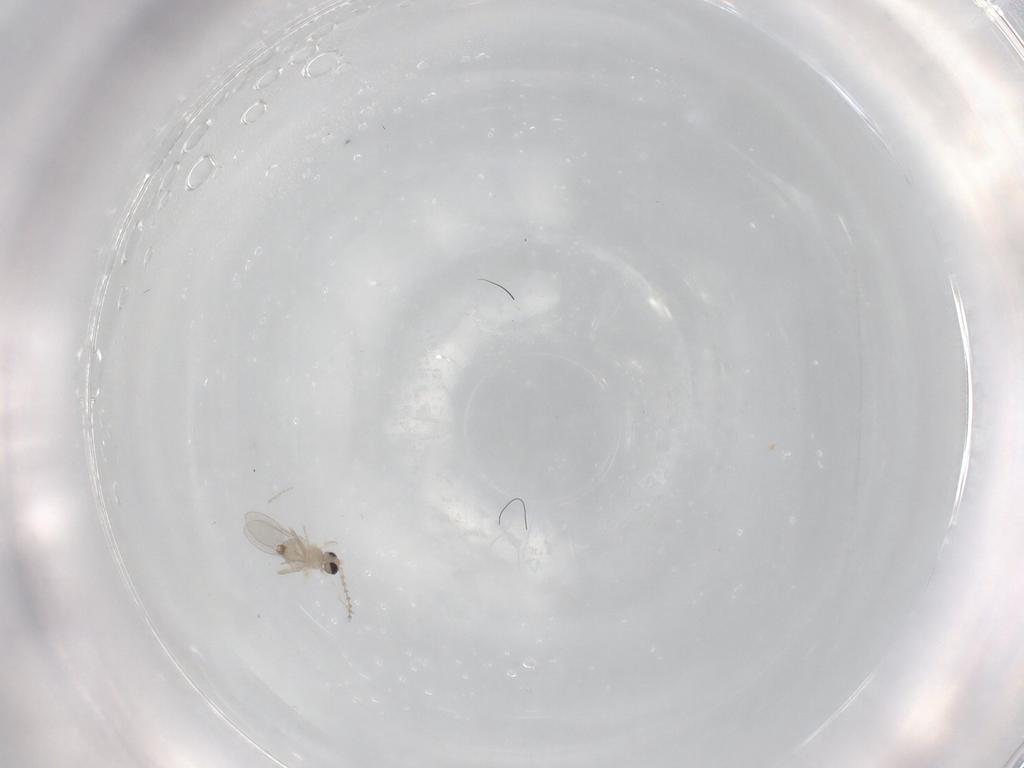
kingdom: Animalia
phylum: Arthropoda
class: Insecta
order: Diptera
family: Cecidomyiidae
